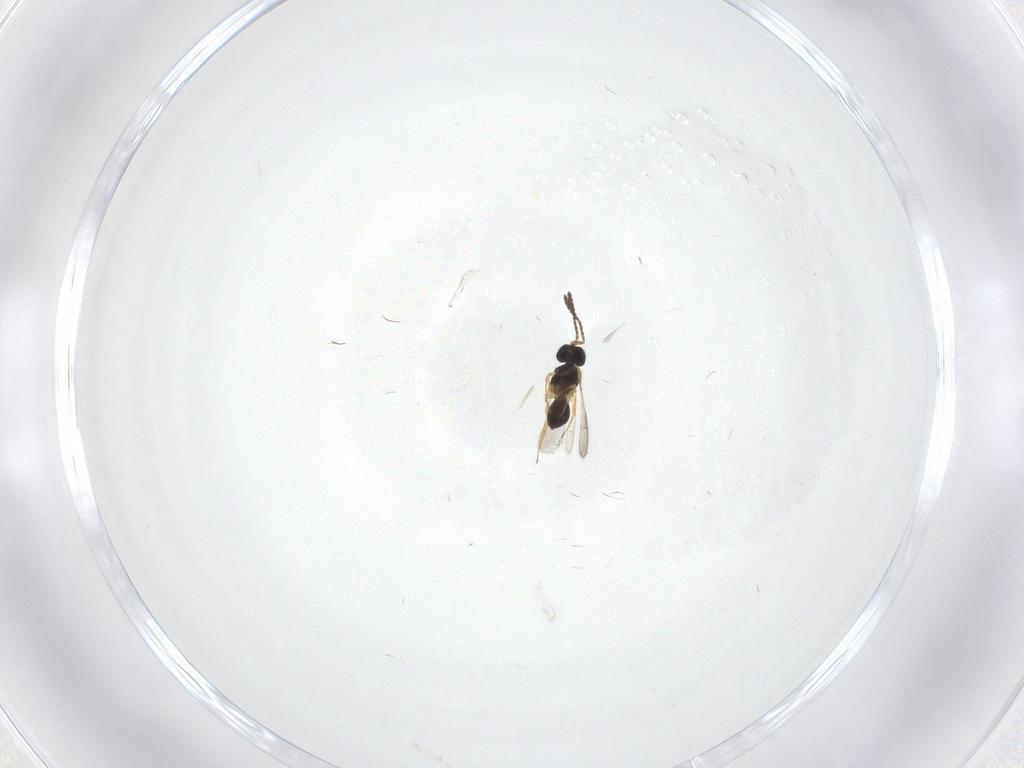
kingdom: Animalia
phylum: Arthropoda
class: Insecta
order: Hymenoptera
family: Scelionidae
